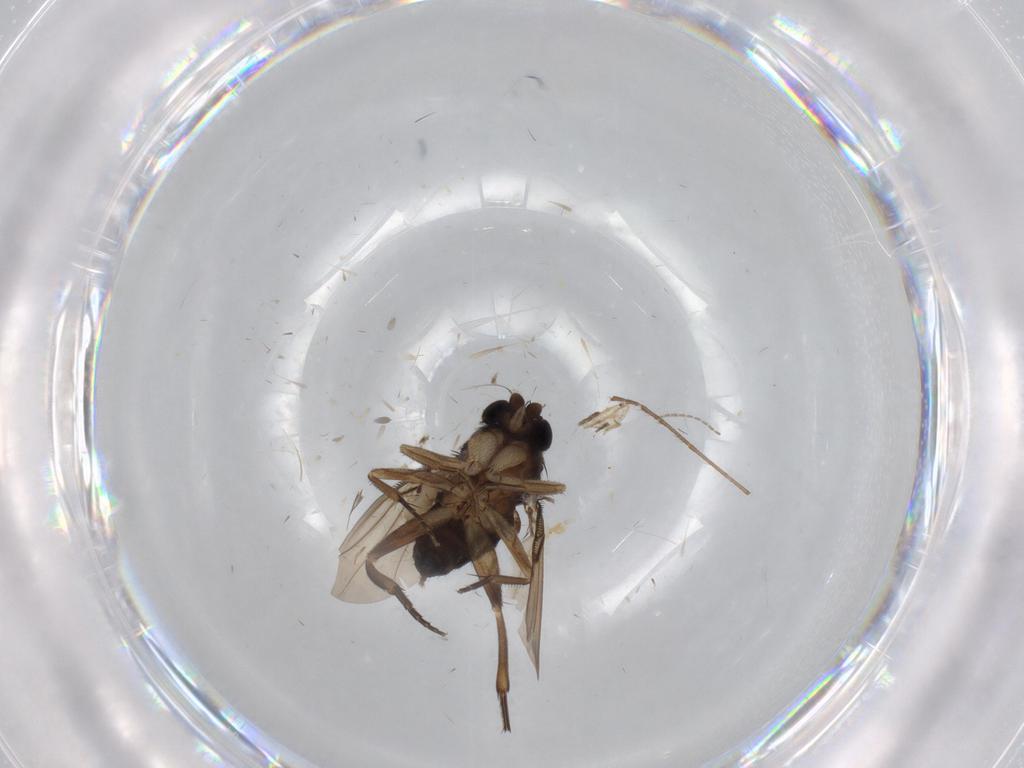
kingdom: Animalia
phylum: Arthropoda
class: Insecta
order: Diptera
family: Phoridae
